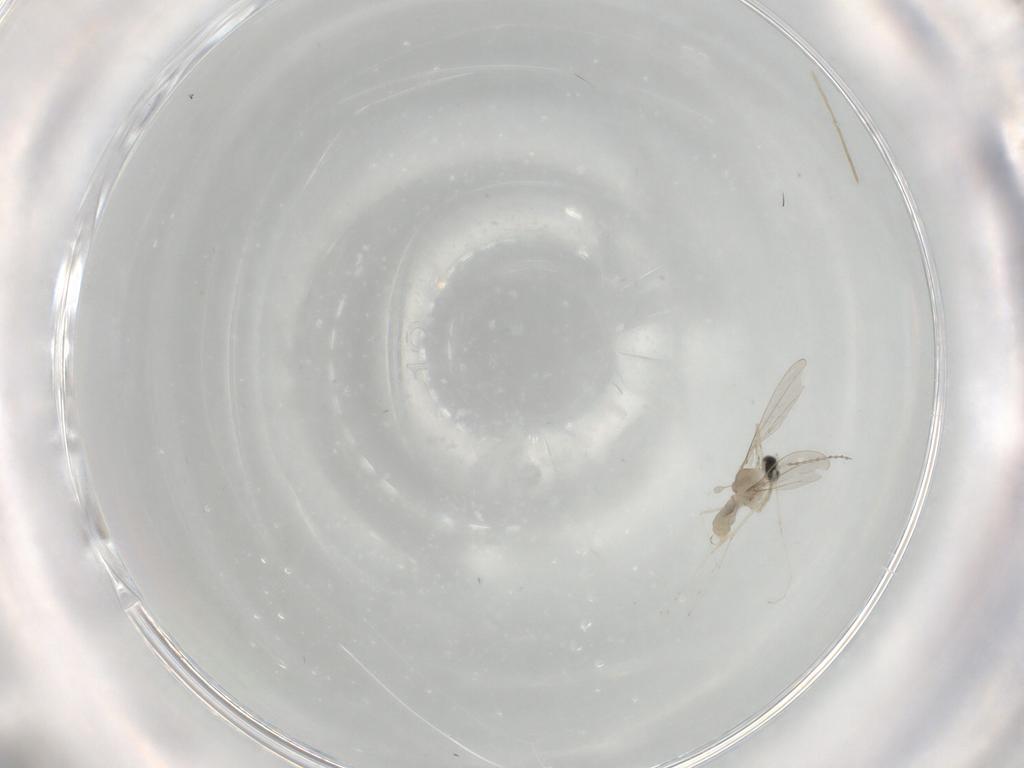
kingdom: Animalia
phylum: Arthropoda
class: Insecta
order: Diptera
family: Cecidomyiidae
